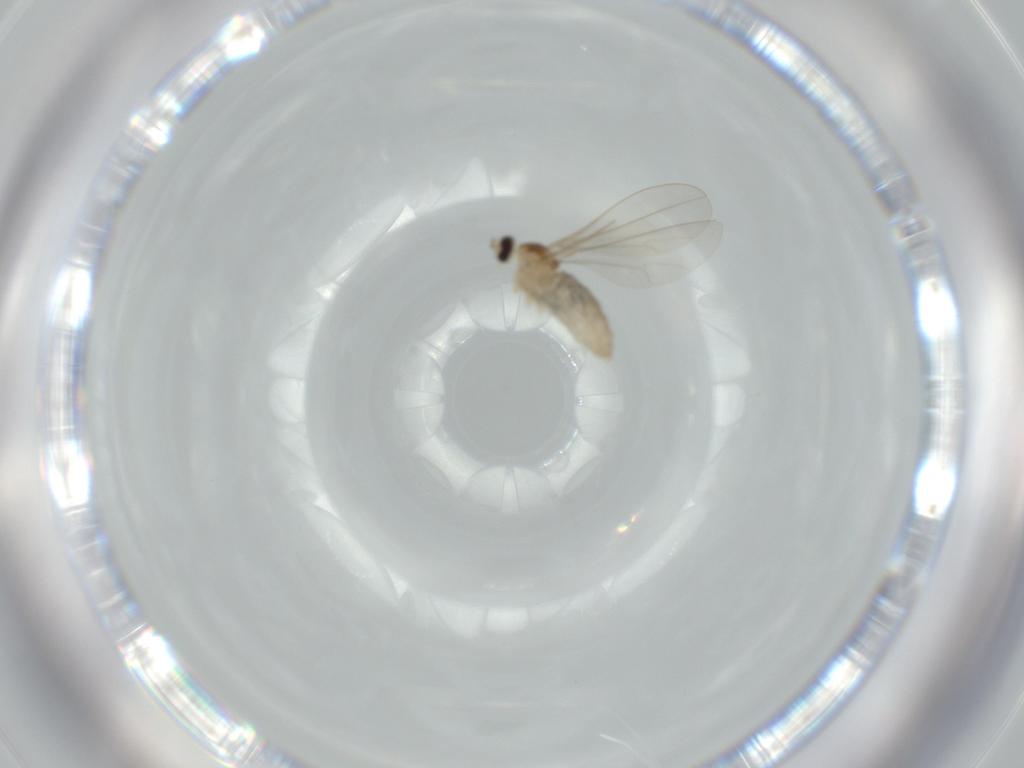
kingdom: Animalia
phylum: Arthropoda
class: Insecta
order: Diptera
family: Cecidomyiidae
